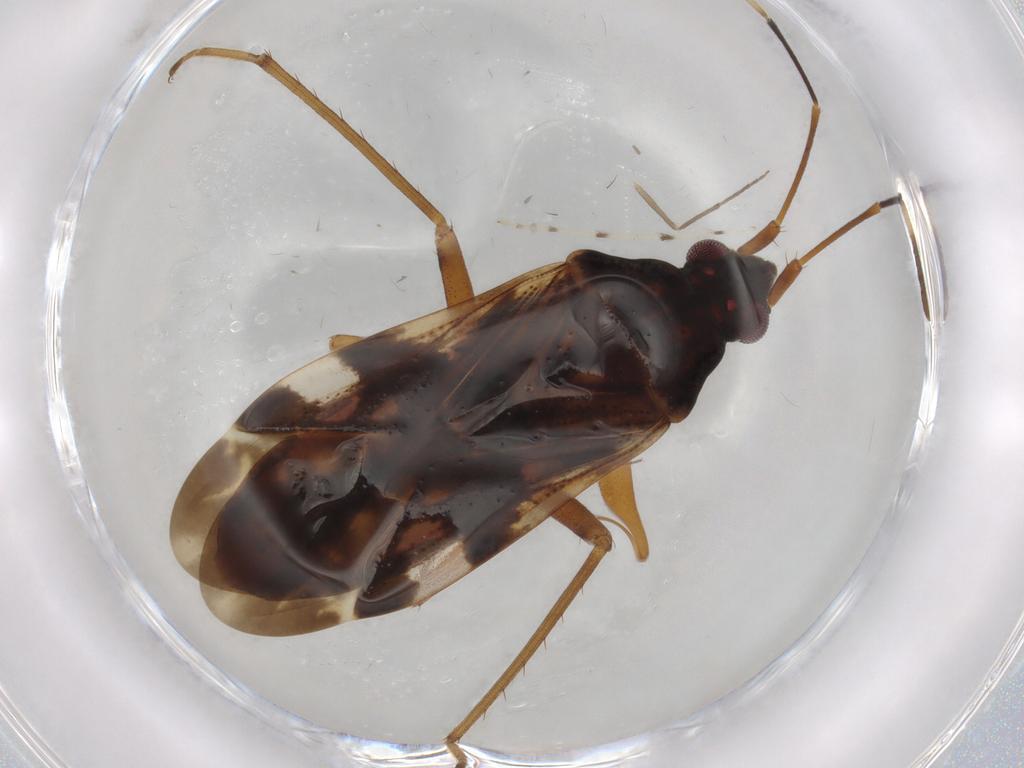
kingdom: Animalia
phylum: Arthropoda
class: Insecta
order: Hemiptera
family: Rhyparochromidae
